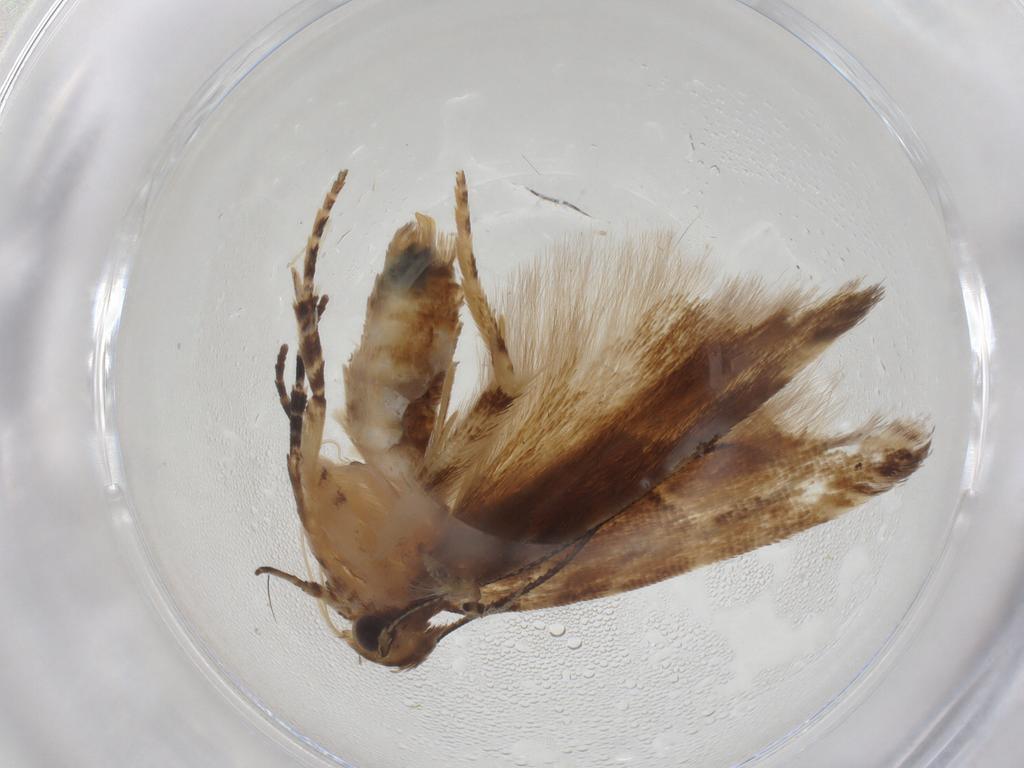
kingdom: Animalia
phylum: Arthropoda
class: Insecta
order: Lepidoptera
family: Gelechiidae
